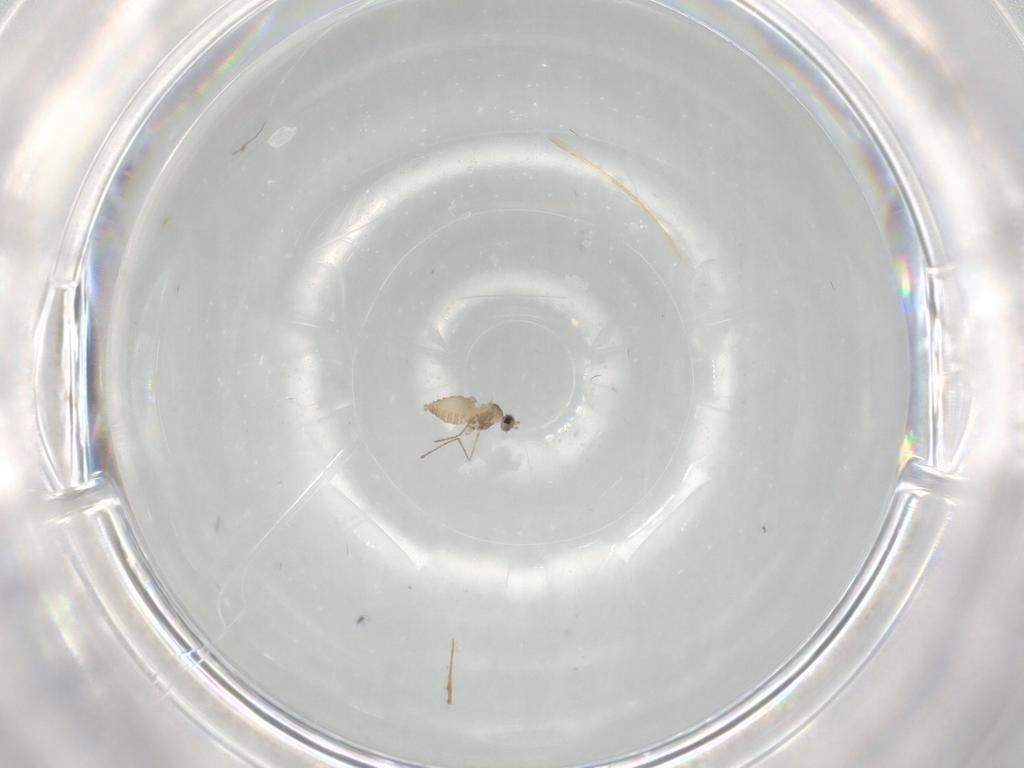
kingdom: Animalia
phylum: Arthropoda
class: Insecta
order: Diptera
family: Cecidomyiidae
